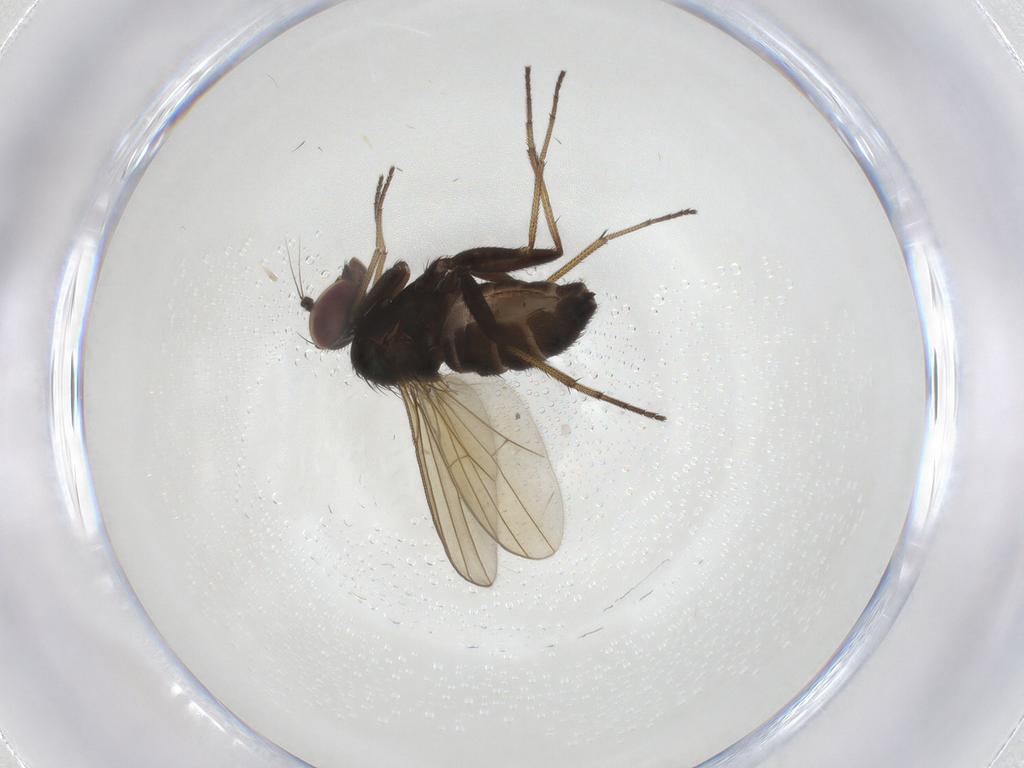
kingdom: Animalia
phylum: Arthropoda
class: Insecta
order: Diptera
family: Dolichopodidae
